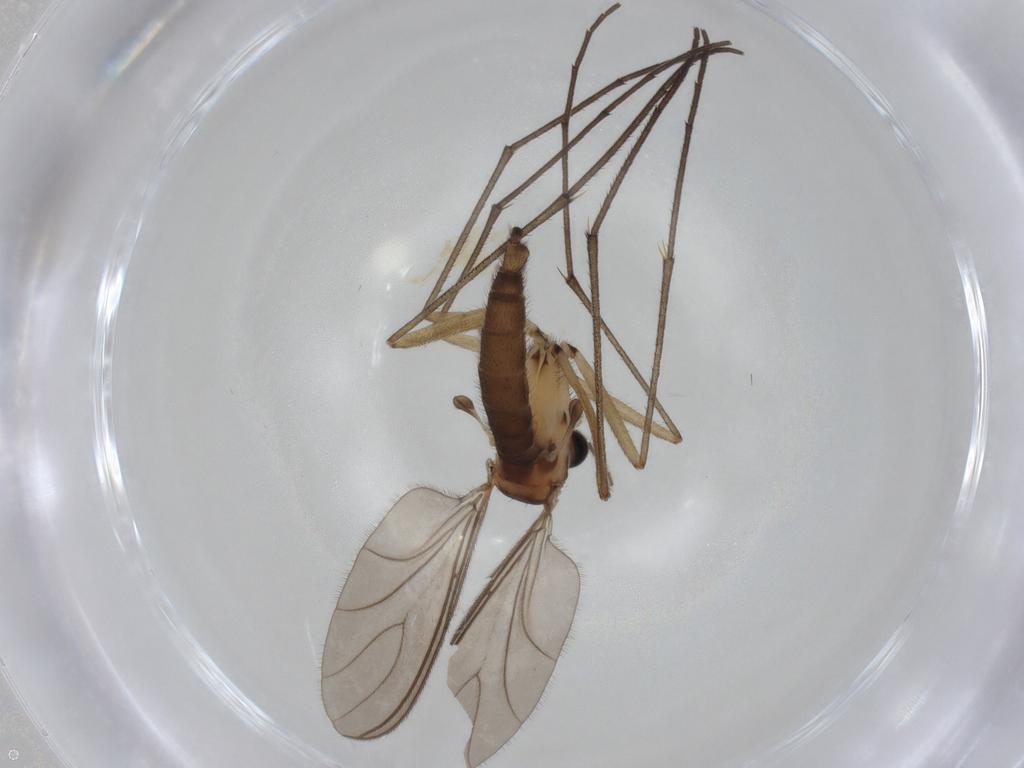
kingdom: Animalia
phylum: Arthropoda
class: Insecta
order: Diptera
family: Sciaridae
